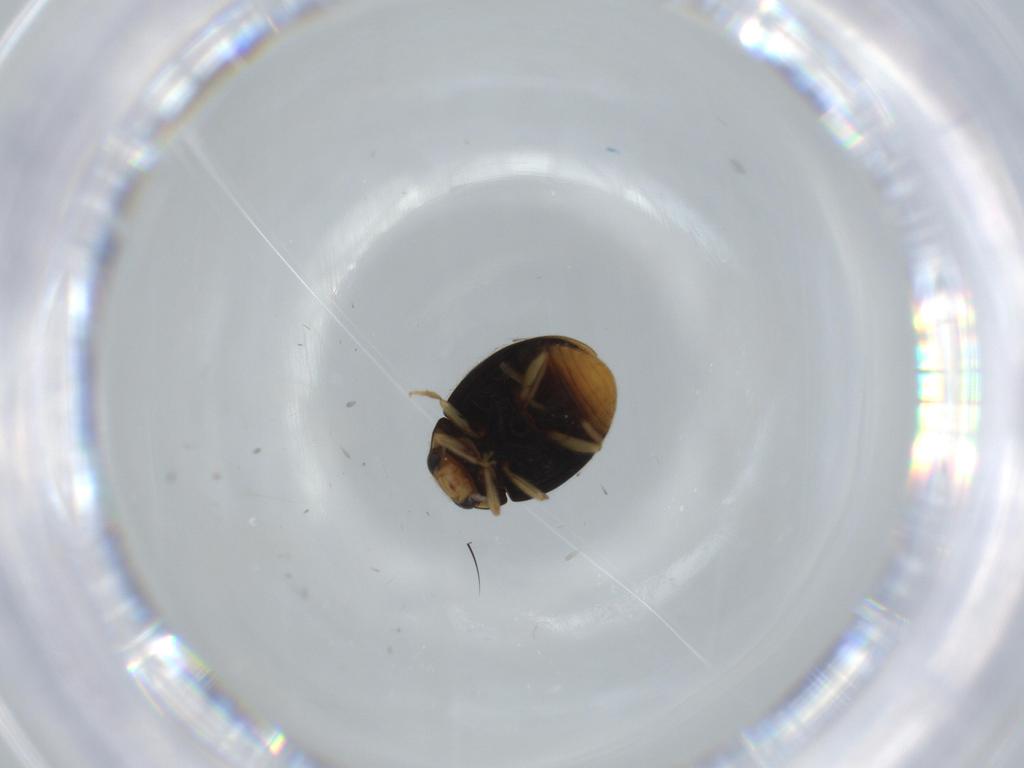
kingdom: Animalia
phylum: Arthropoda
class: Insecta
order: Coleoptera
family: Coccinellidae
